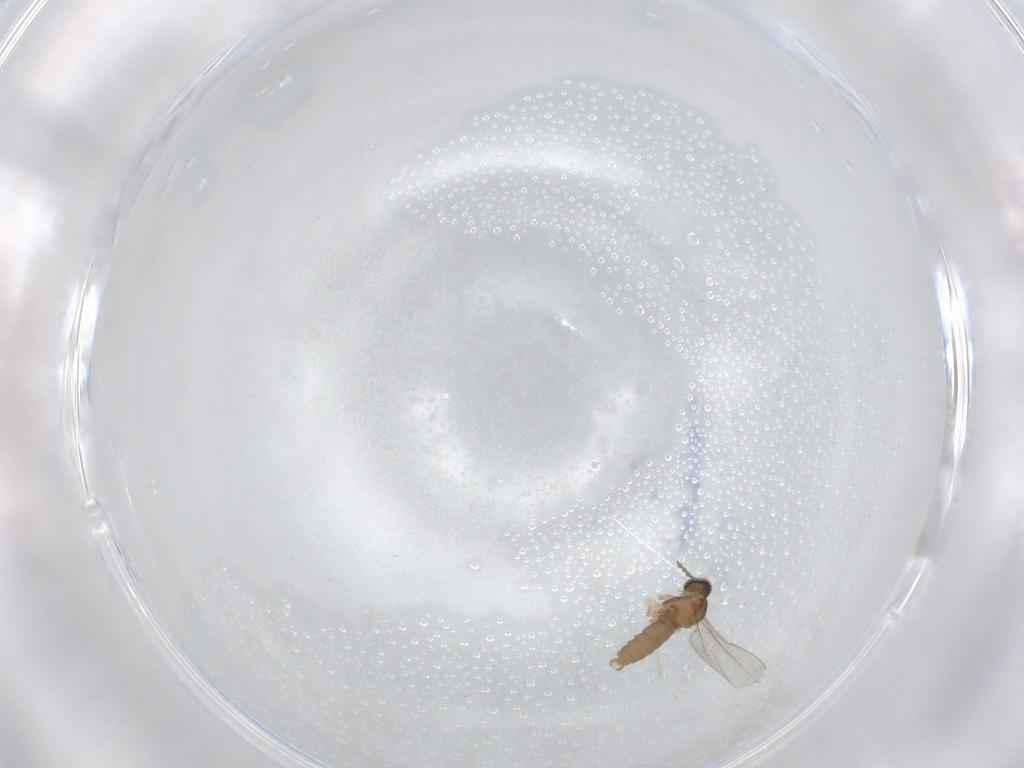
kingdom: Animalia
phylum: Arthropoda
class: Insecta
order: Diptera
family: Cecidomyiidae
